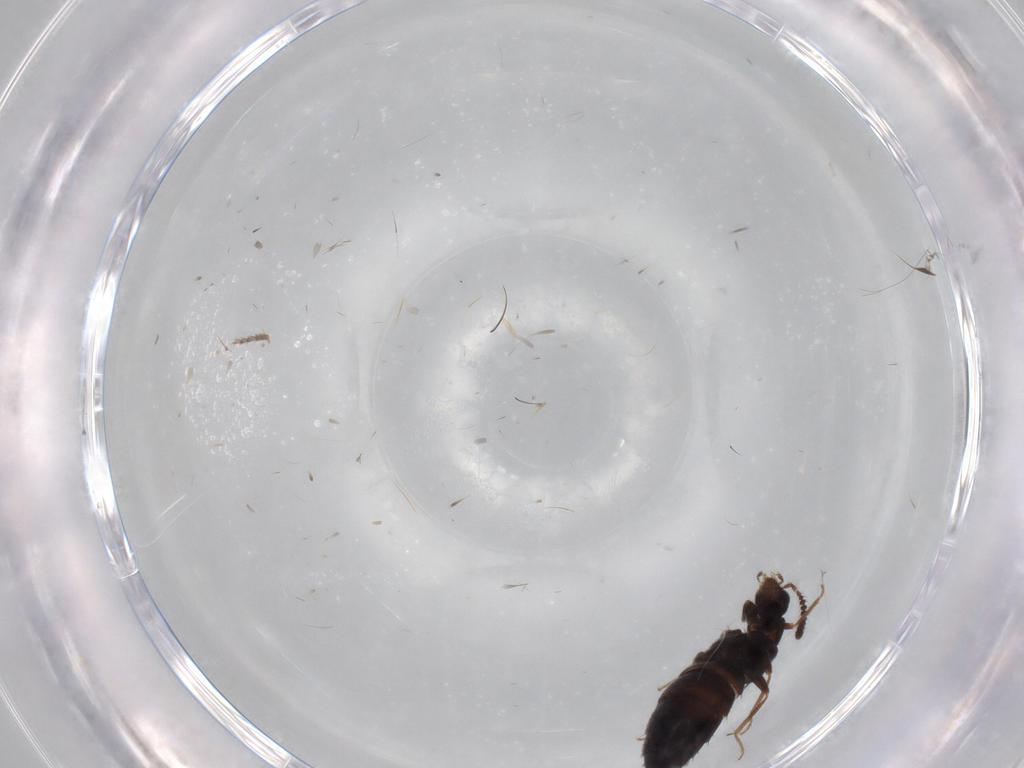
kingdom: Animalia
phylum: Arthropoda
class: Insecta
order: Coleoptera
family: Staphylinidae
